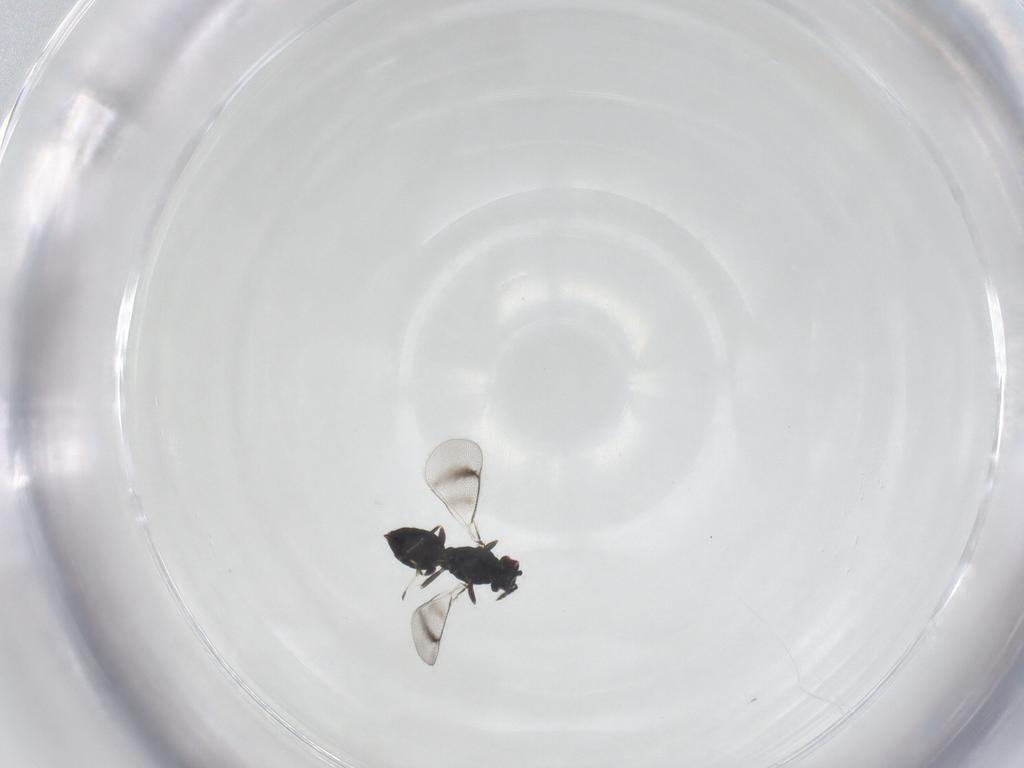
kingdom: Animalia
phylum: Arthropoda
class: Insecta
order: Hymenoptera
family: Eulophidae
